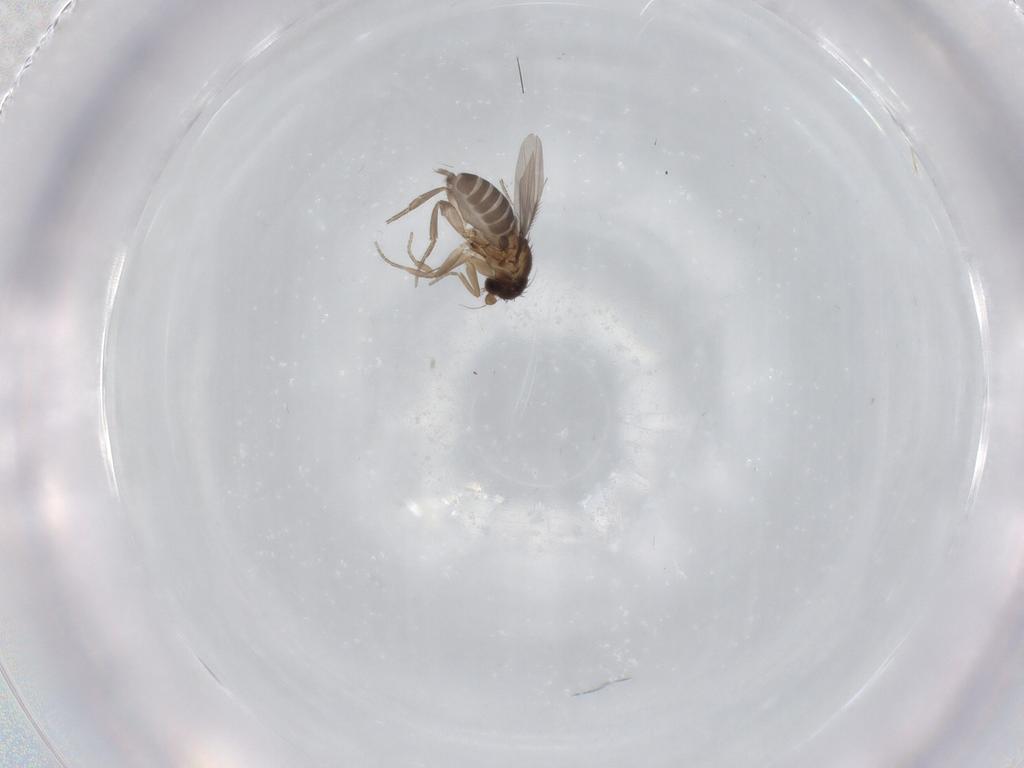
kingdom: Animalia
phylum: Arthropoda
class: Insecta
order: Diptera
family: Phoridae
